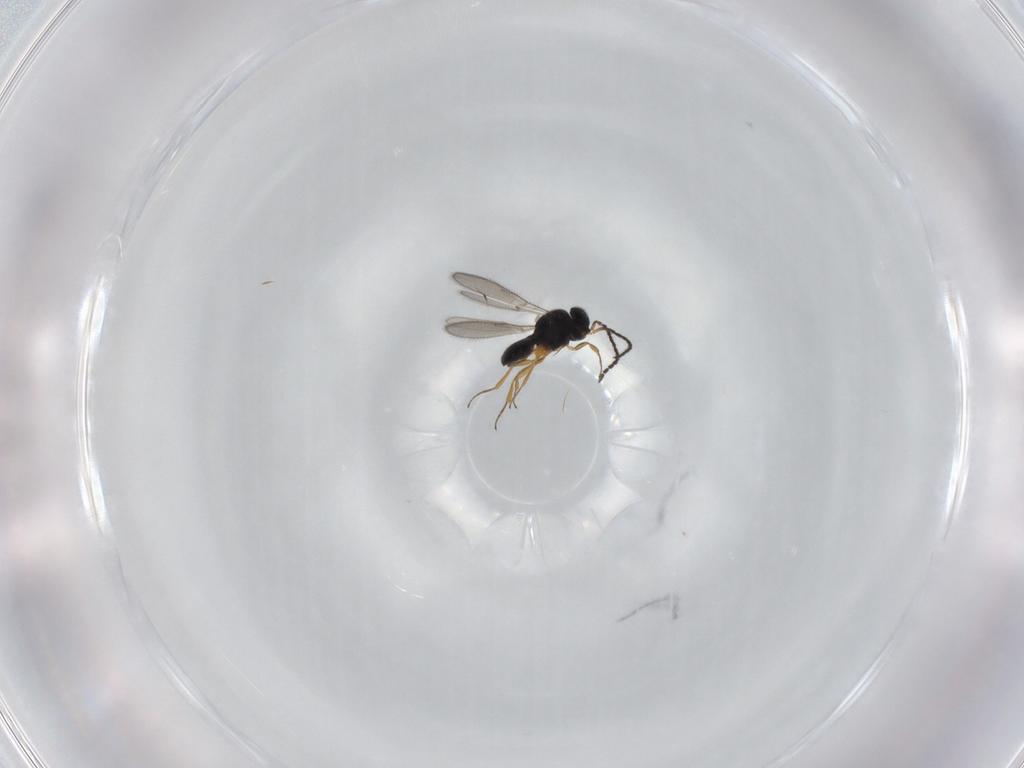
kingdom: Animalia
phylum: Arthropoda
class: Insecta
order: Hymenoptera
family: Scelionidae
